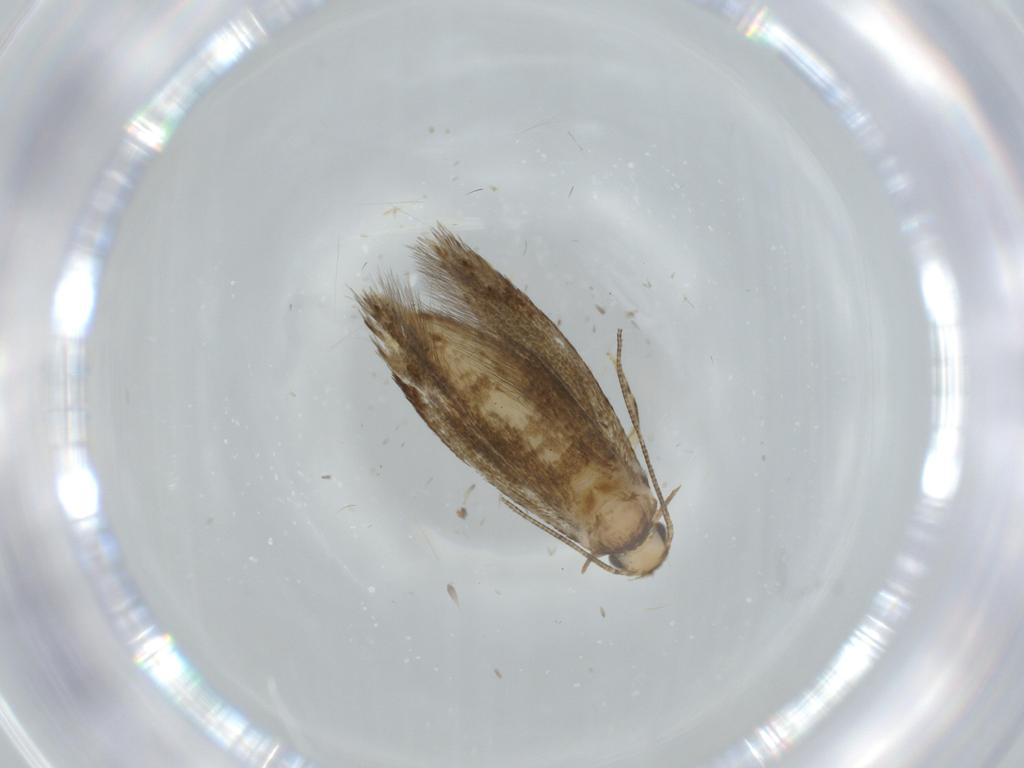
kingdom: Animalia
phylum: Arthropoda
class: Insecta
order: Lepidoptera
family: Tineidae
